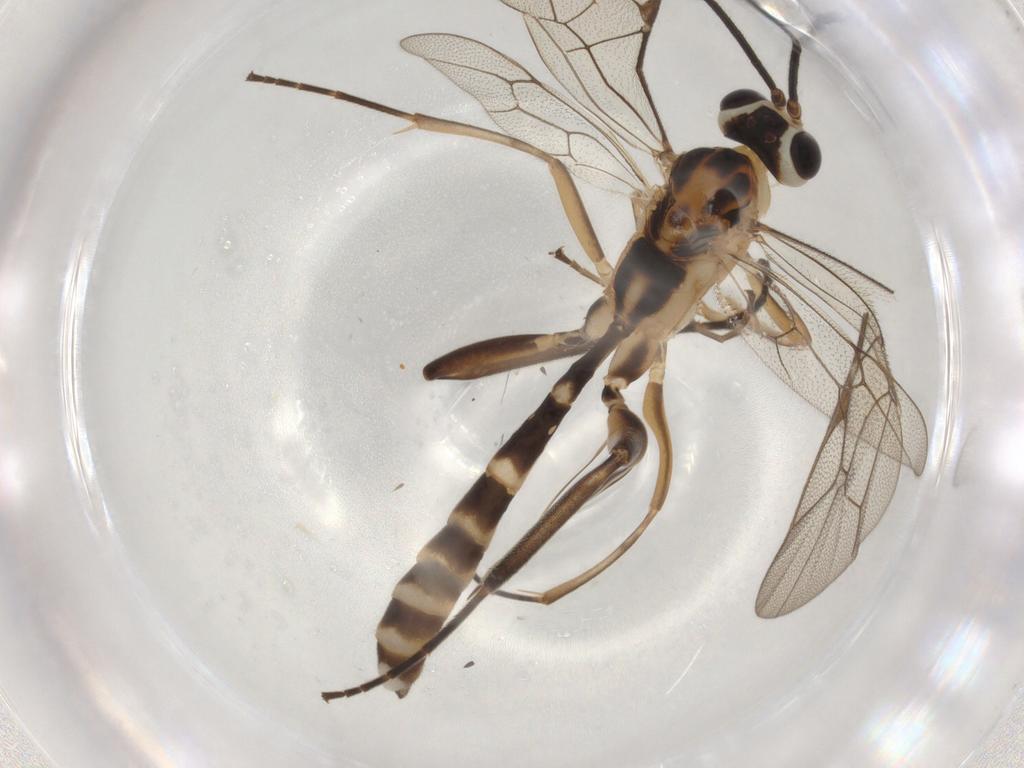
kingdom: Animalia
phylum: Arthropoda
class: Insecta
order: Hymenoptera
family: Ichneumonidae
